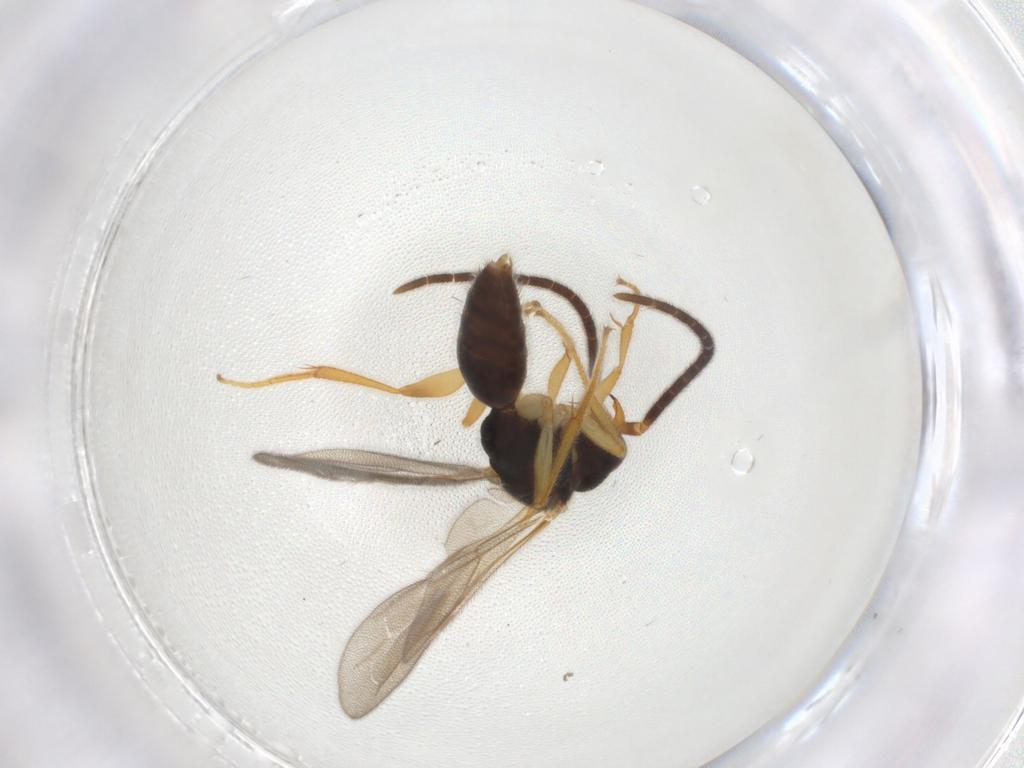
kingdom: Animalia
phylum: Arthropoda
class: Insecta
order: Hymenoptera
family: Bethylidae
